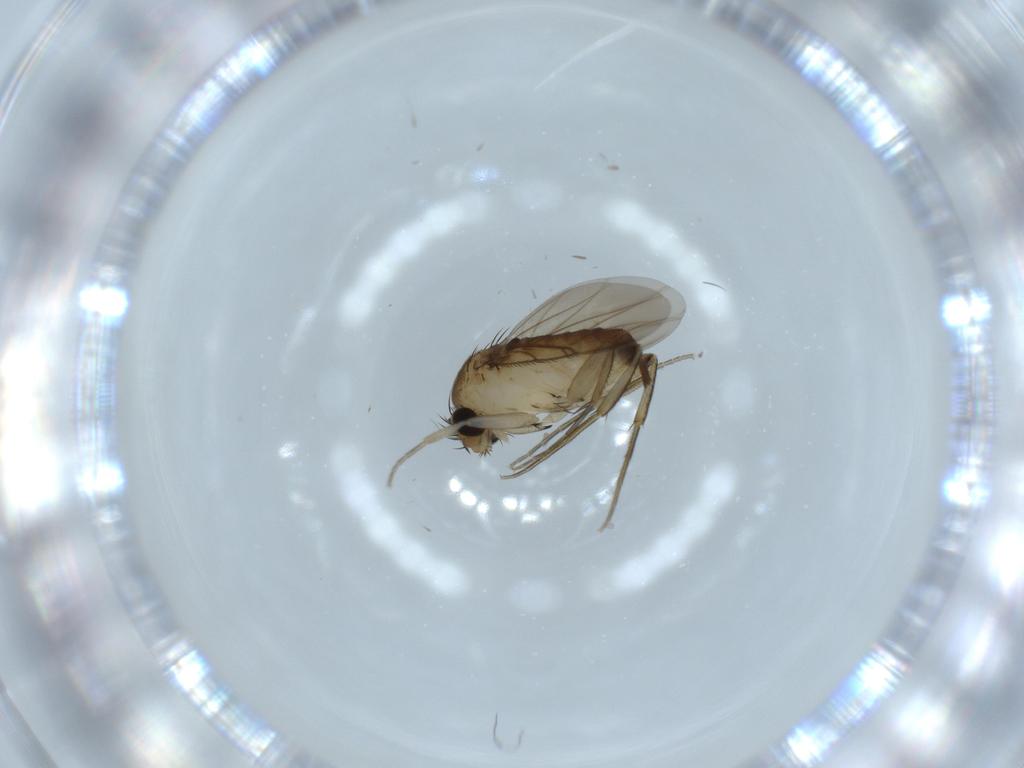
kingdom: Animalia
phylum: Arthropoda
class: Insecta
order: Diptera
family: Phoridae
